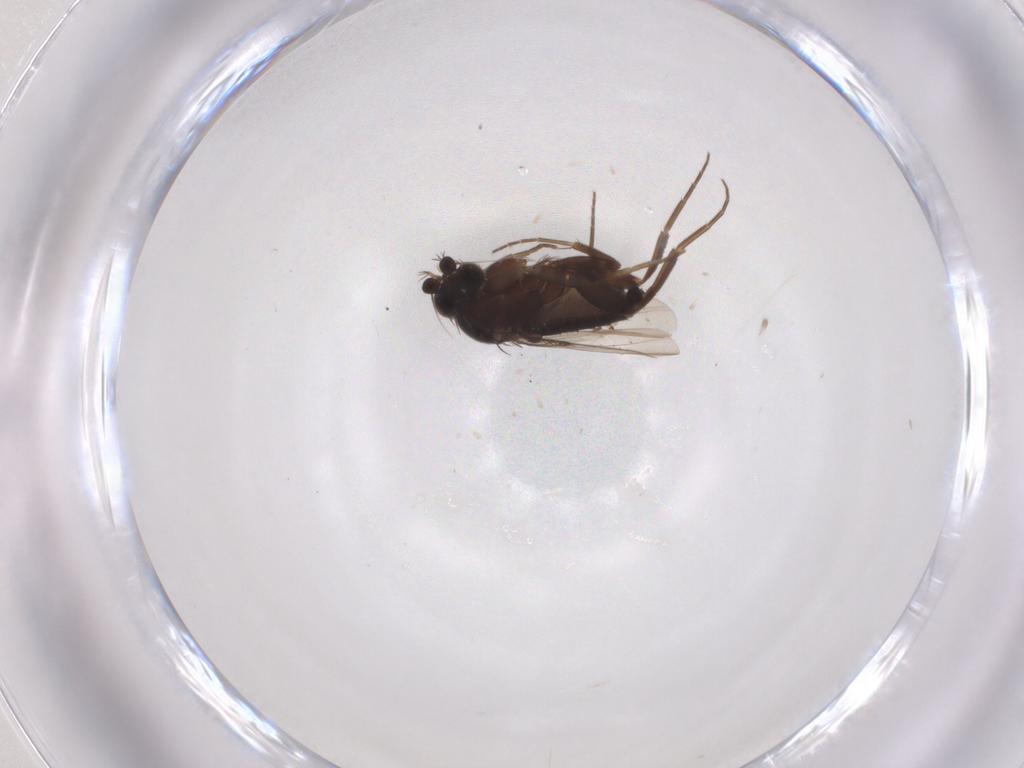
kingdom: Animalia
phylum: Arthropoda
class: Insecta
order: Diptera
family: Phoridae
